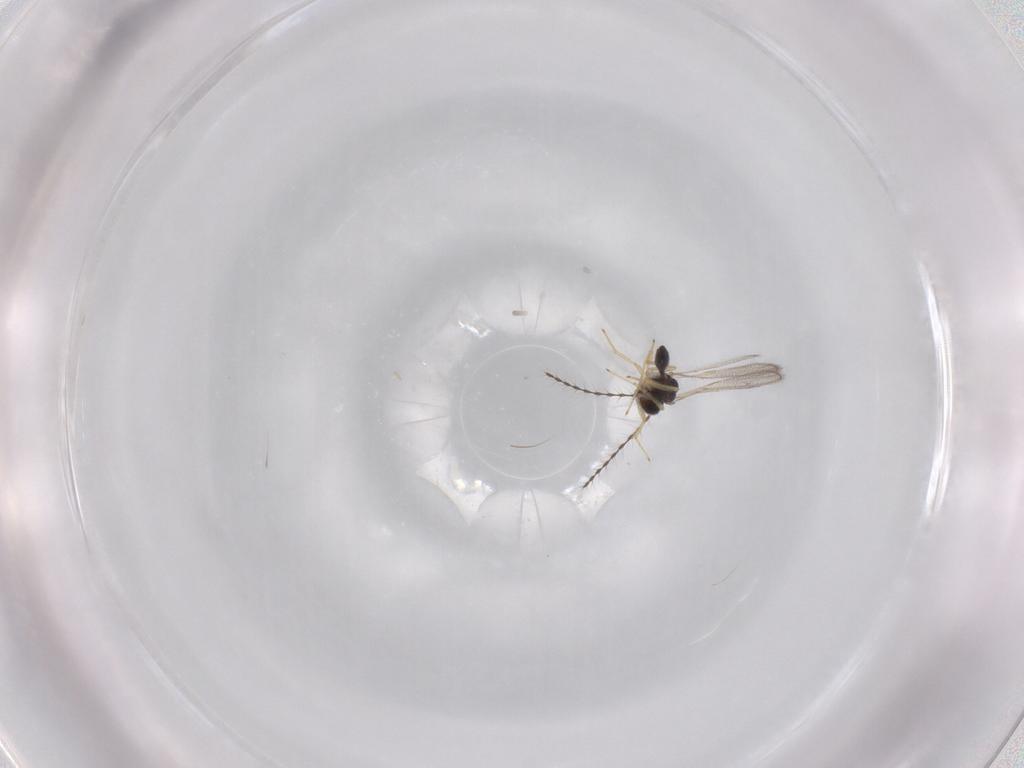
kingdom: Animalia
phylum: Arthropoda
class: Insecta
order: Hymenoptera
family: Diparidae
